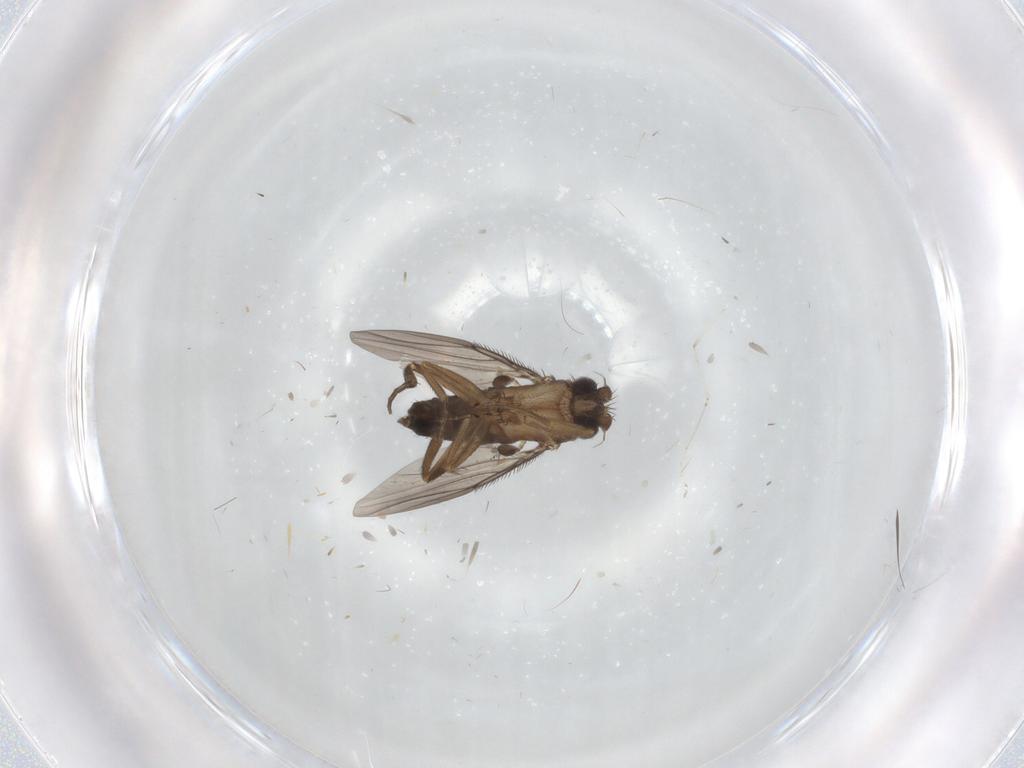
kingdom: Animalia
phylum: Arthropoda
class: Insecta
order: Diptera
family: Phoridae
